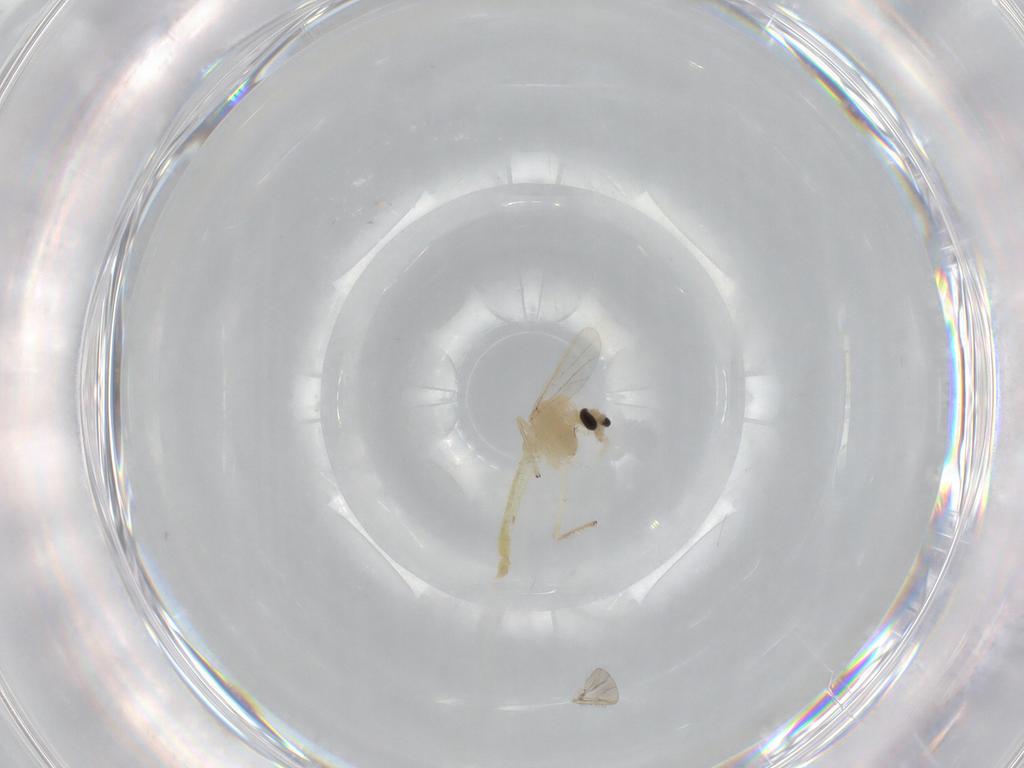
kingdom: Animalia
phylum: Arthropoda
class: Insecta
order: Diptera
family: Chironomidae
